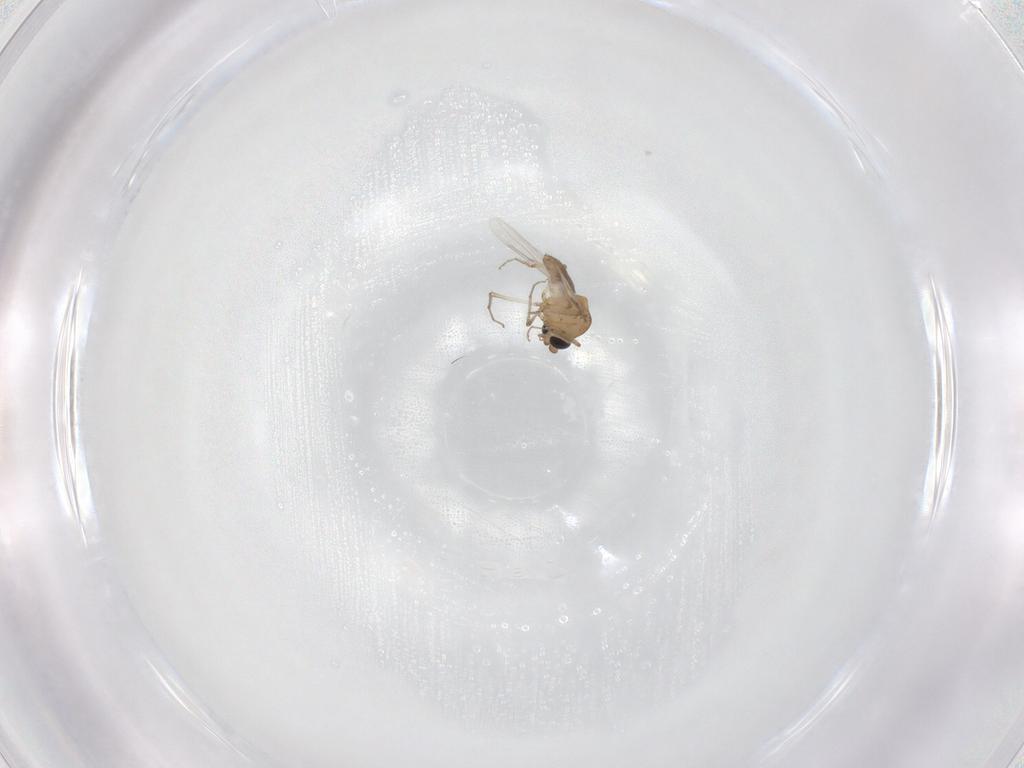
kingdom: Animalia
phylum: Arthropoda
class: Insecta
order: Diptera
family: Ceratopogonidae
